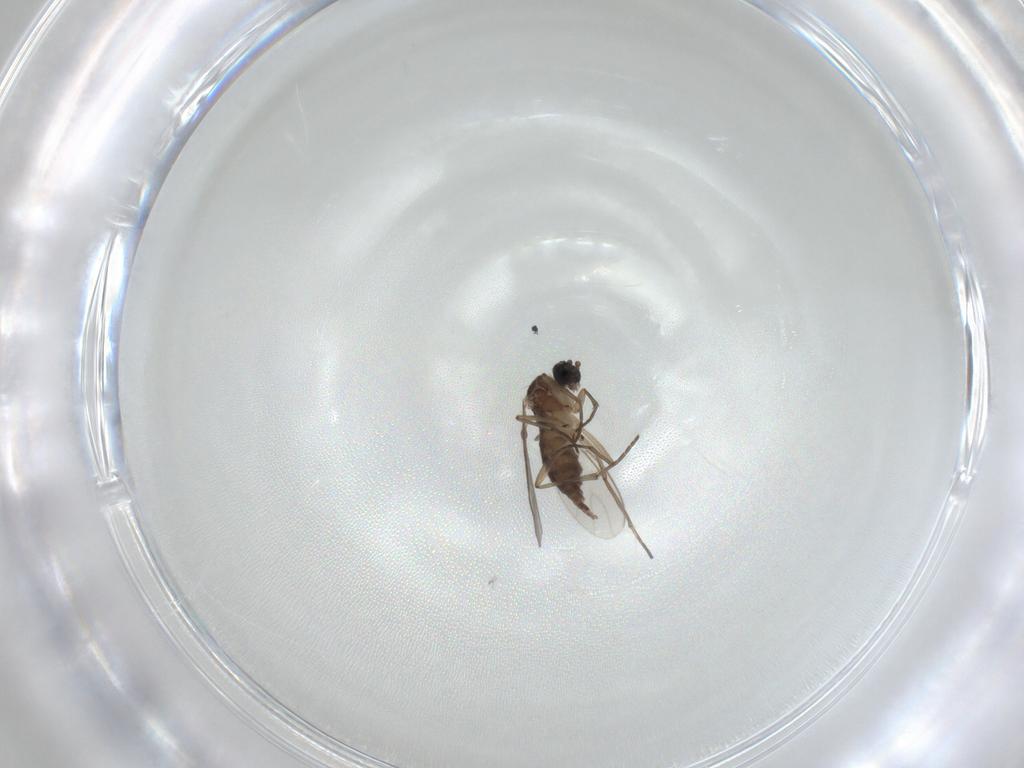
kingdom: Animalia
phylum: Arthropoda
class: Insecta
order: Diptera
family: Sciaridae
